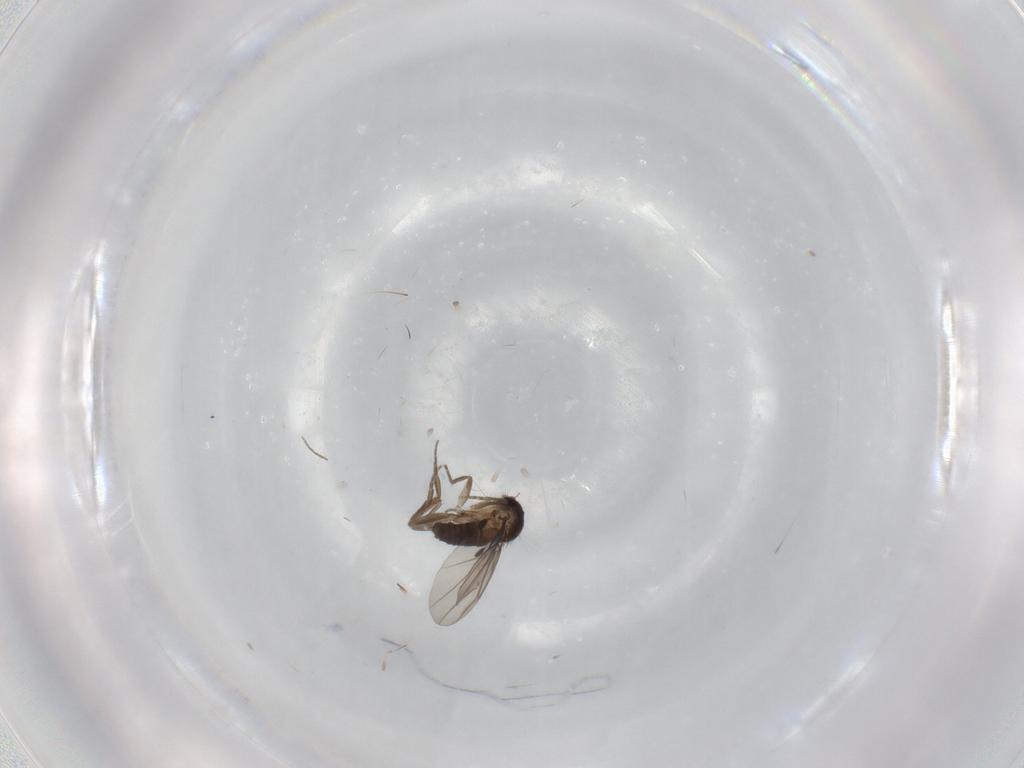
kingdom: Animalia
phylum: Arthropoda
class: Insecta
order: Diptera
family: Phoridae
